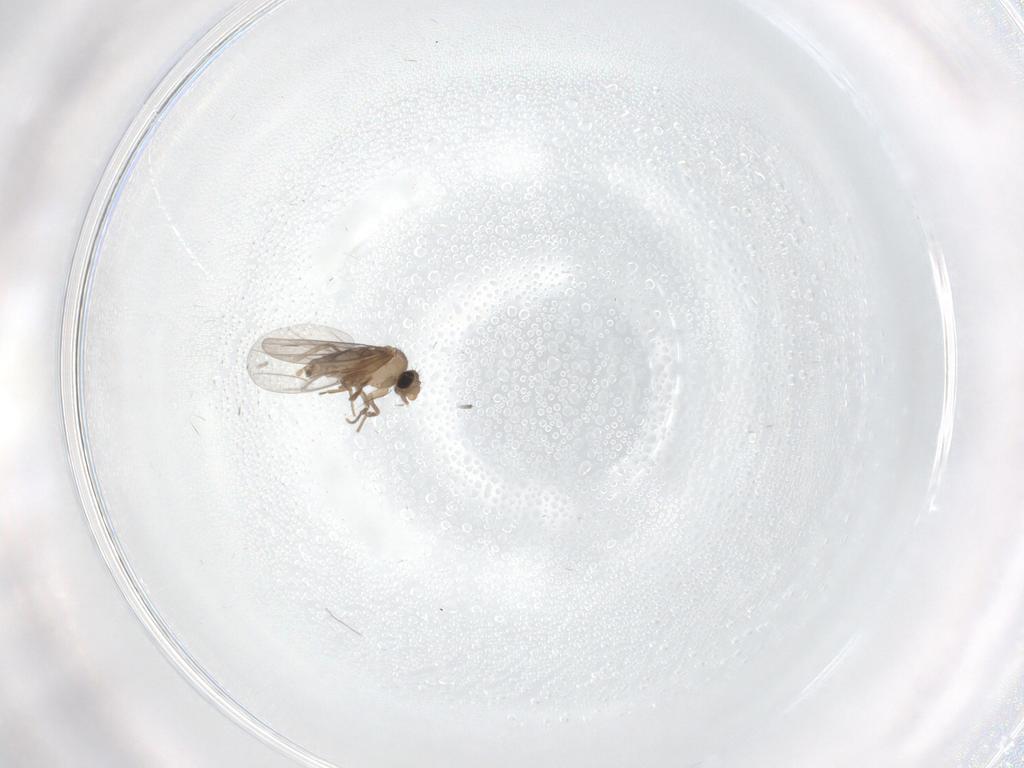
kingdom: Animalia
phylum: Arthropoda
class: Insecta
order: Diptera
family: Chironomidae
